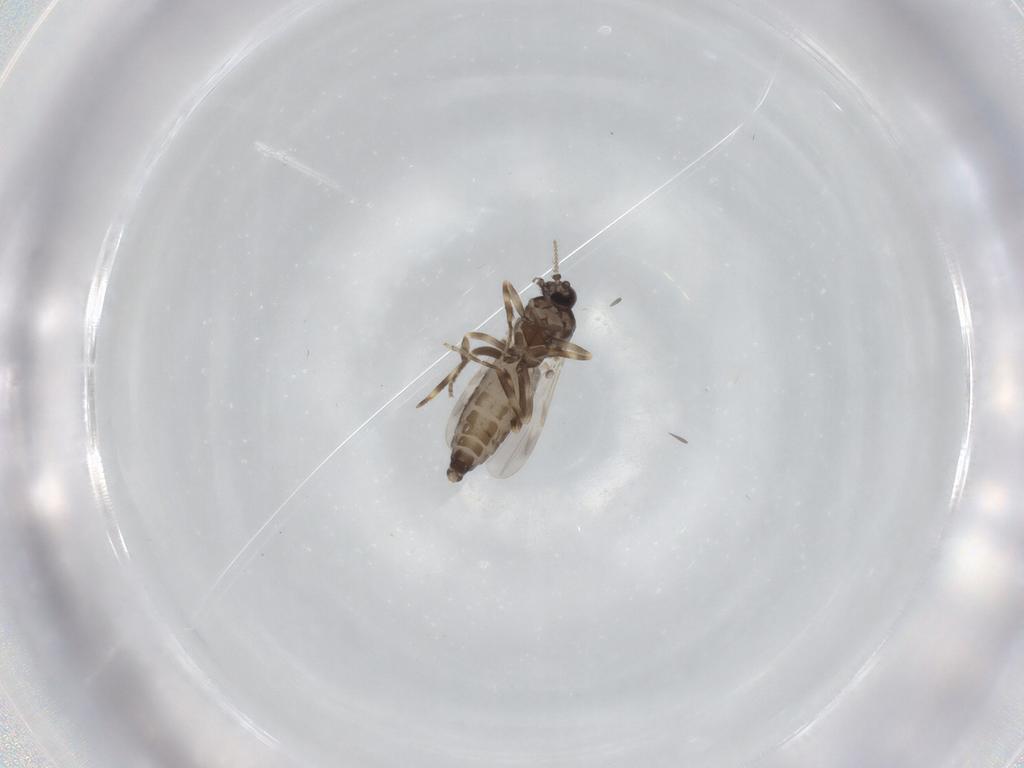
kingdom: Animalia
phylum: Arthropoda
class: Insecta
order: Diptera
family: Ceratopogonidae
